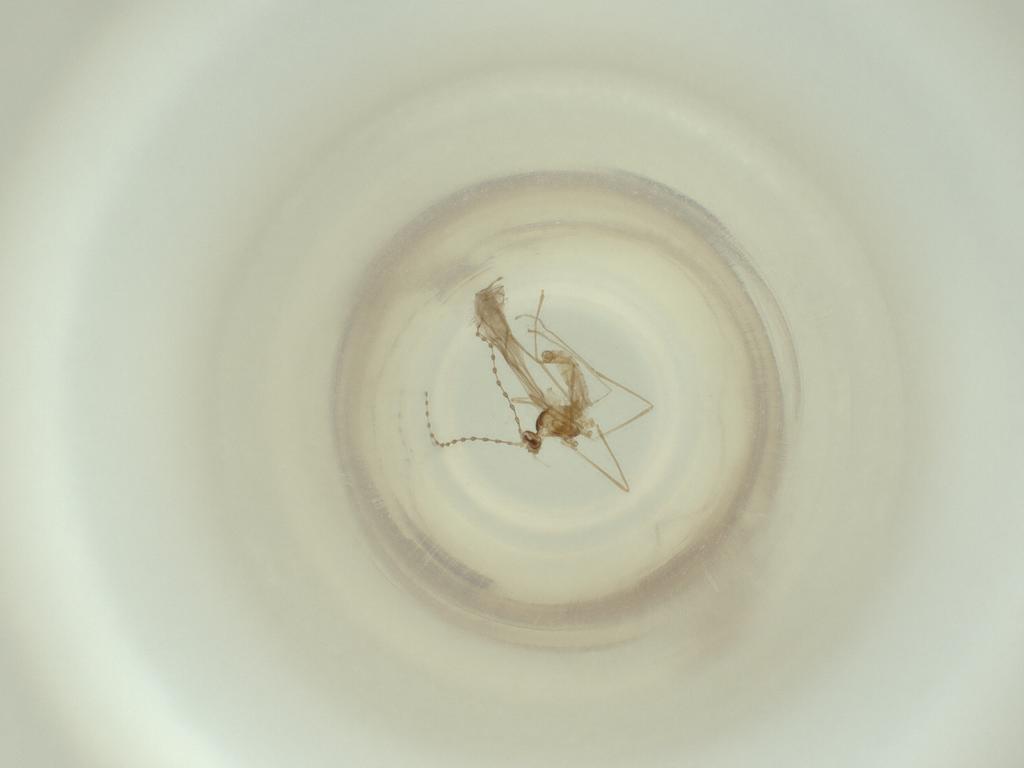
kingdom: Animalia
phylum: Arthropoda
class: Insecta
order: Diptera
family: Cecidomyiidae
